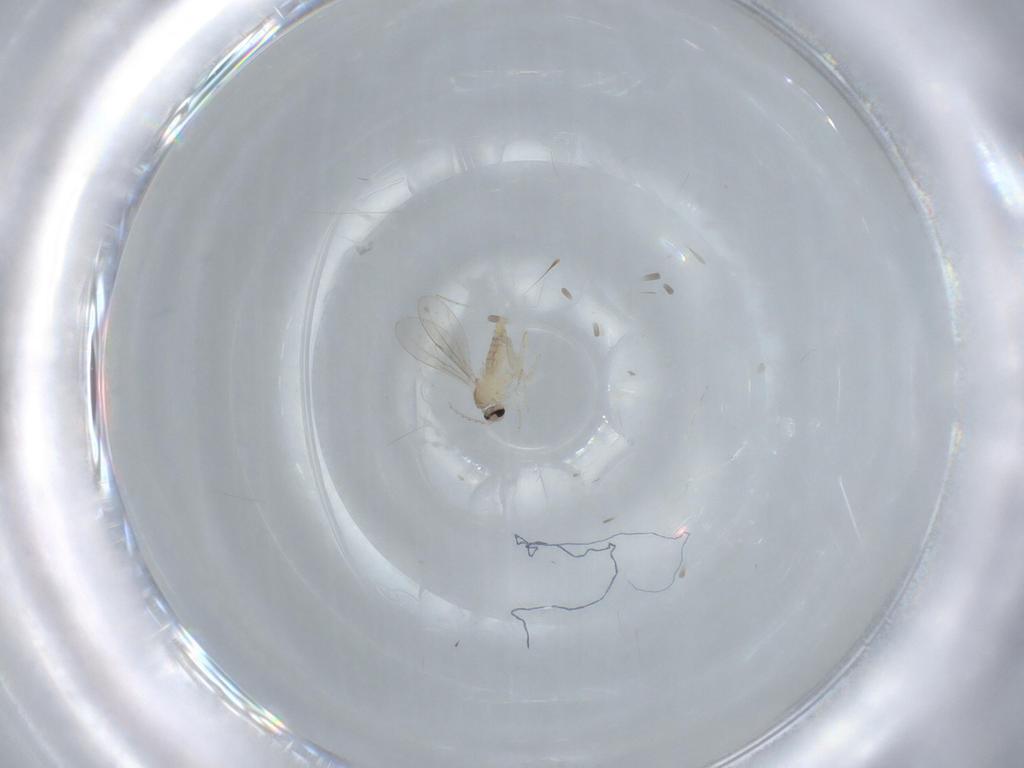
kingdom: Animalia
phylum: Arthropoda
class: Insecta
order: Diptera
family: Cecidomyiidae
